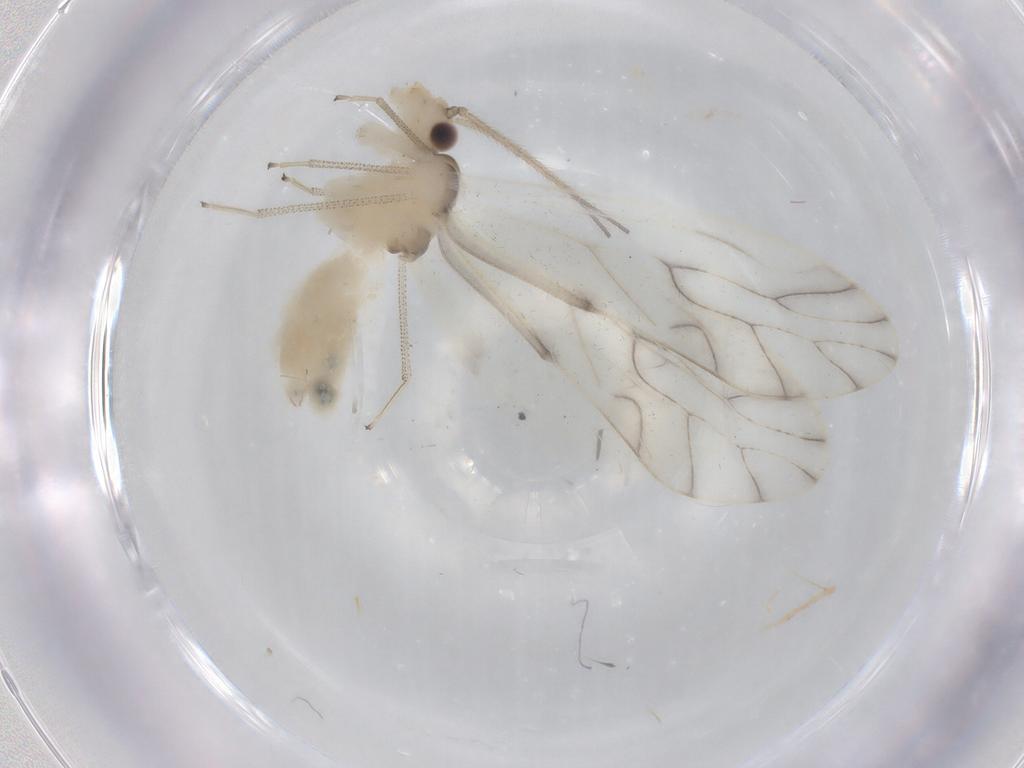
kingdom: Animalia
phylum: Arthropoda
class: Insecta
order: Psocodea
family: Caeciliusidae
